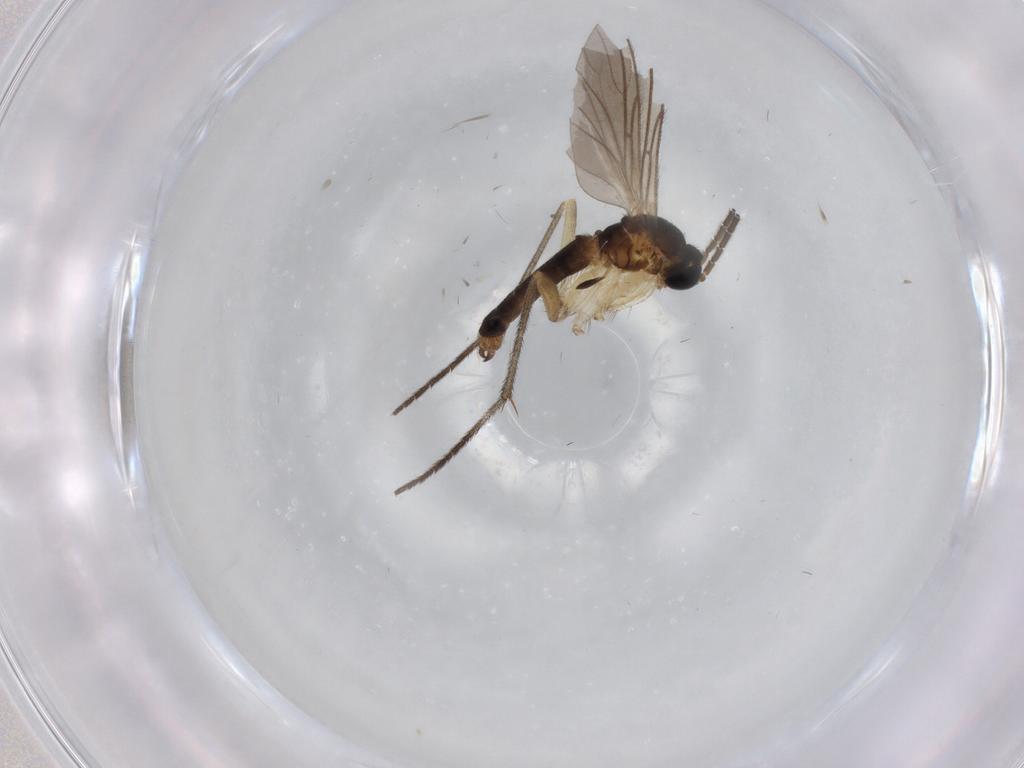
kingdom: Animalia
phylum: Arthropoda
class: Insecta
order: Diptera
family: Sciaridae
